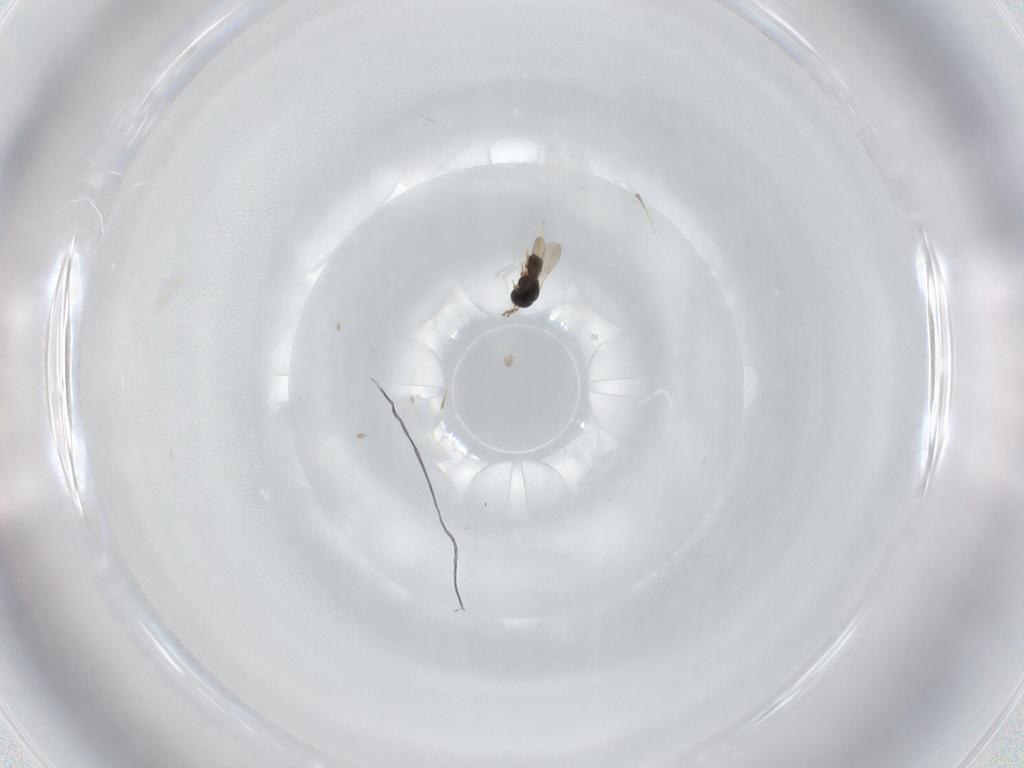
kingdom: Animalia
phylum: Arthropoda
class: Insecta
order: Hymenoptera
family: Scelionidae
